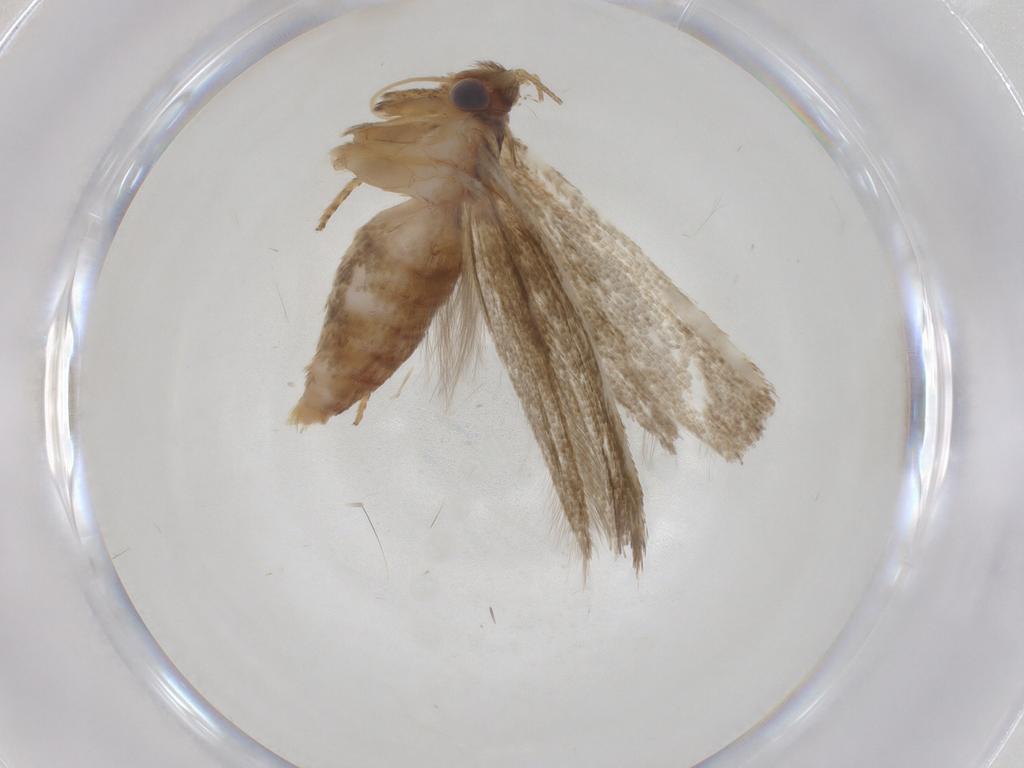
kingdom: Animalia
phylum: Arthropoda
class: Insecta
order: Lepidoptera
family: Blastobasidae
